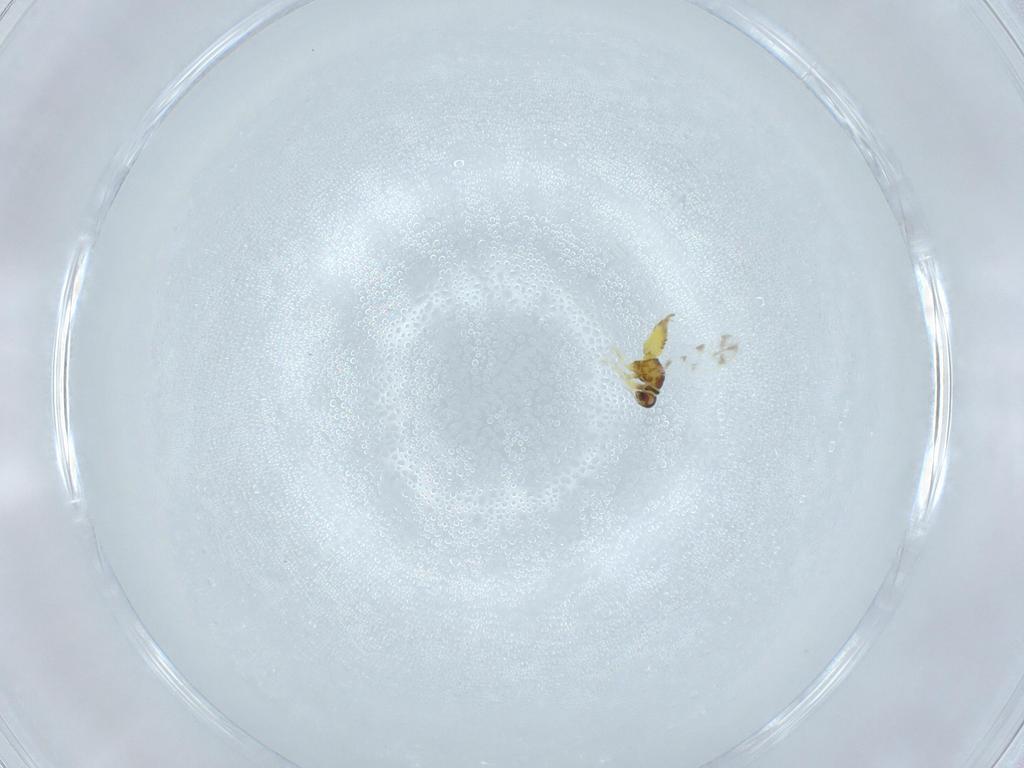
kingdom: Animalia
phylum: Arthropoda
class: Insecta
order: Hemiptera
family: Aleyrodidae
